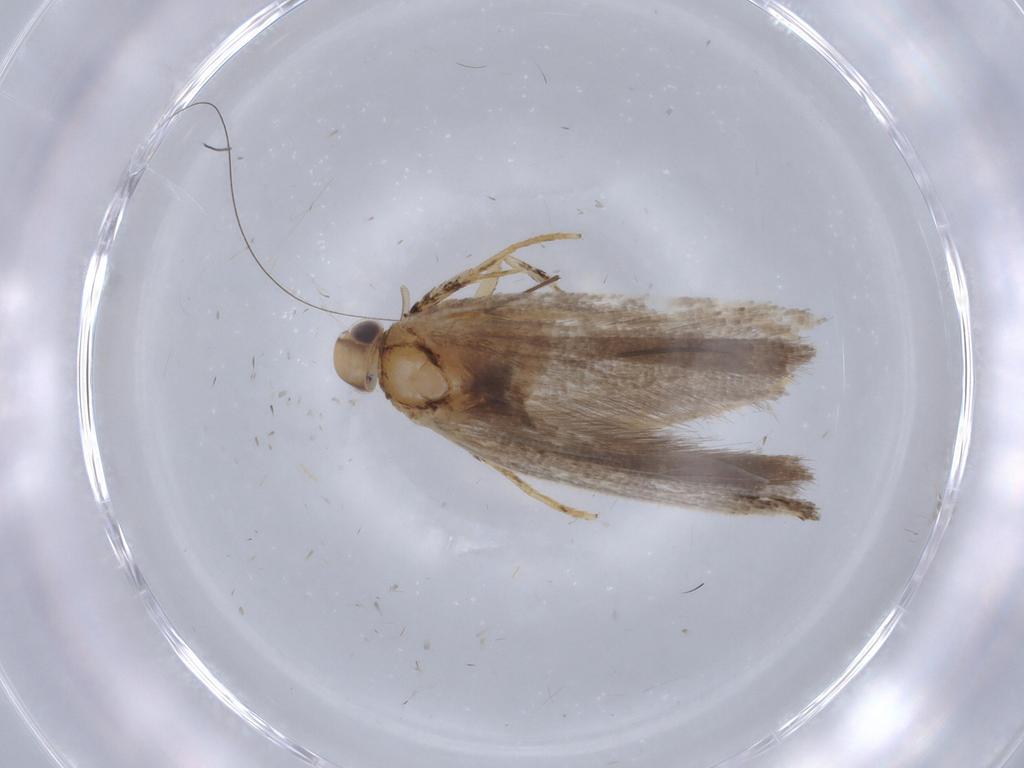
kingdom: Animalia
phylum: Arthropoda
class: Insecta
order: Lepidoptera
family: Gelechiidae
